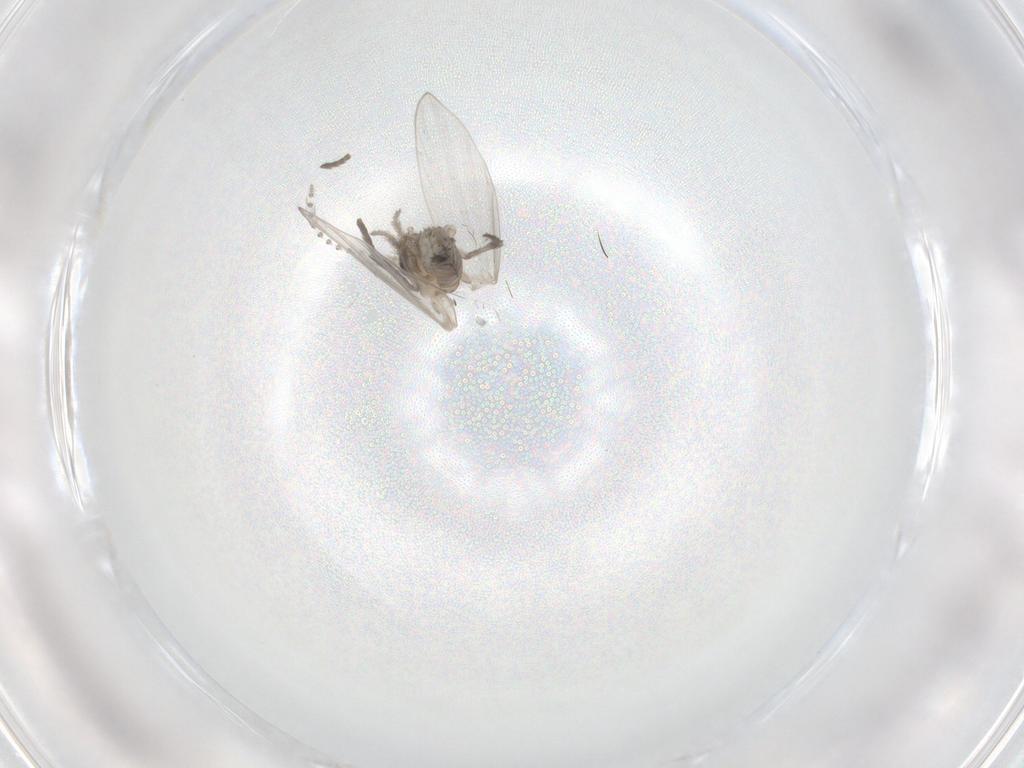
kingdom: Animalia
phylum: Arthropoda
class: Insecta
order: Diptera
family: Psychodidae
